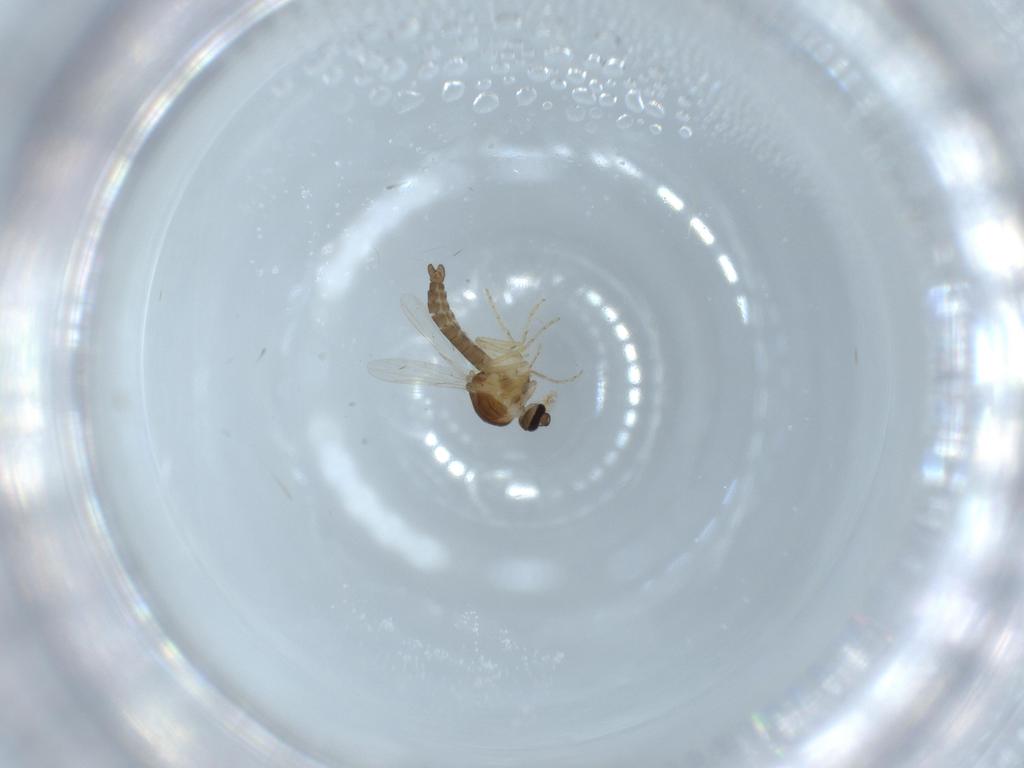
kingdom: Animalia
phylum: Arthropoda
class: Insecta
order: Diptera
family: Ceratopogonidae
